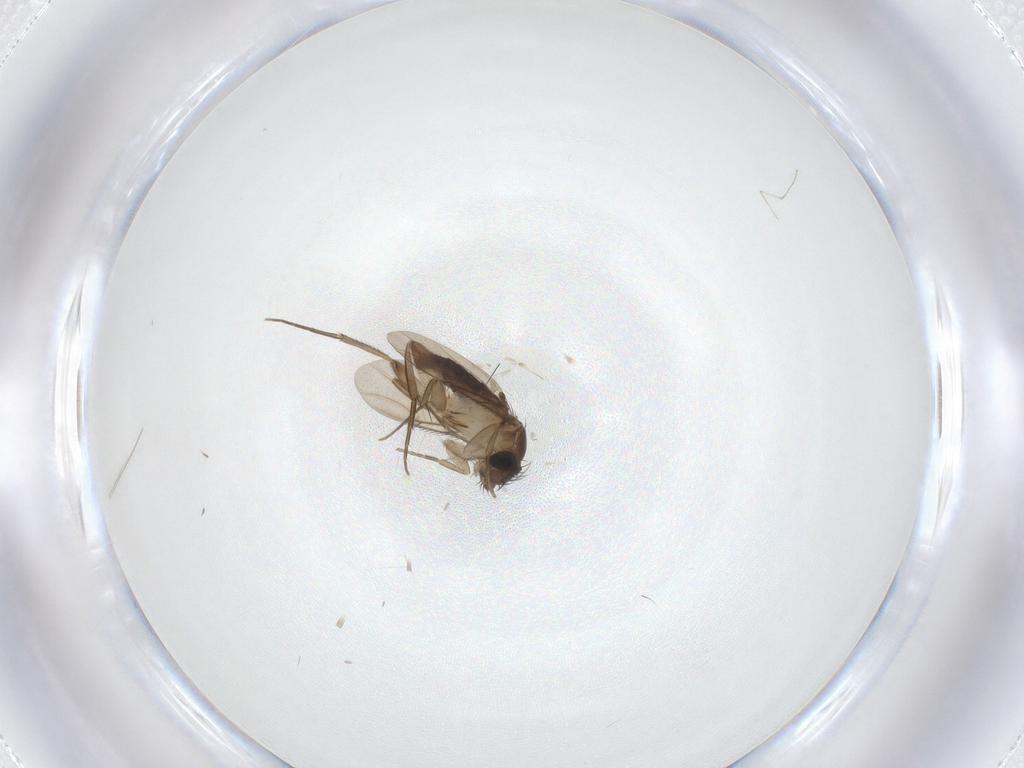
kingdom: Animalia
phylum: Arthropoda
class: Insecta
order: Diptera
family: Phoridae
